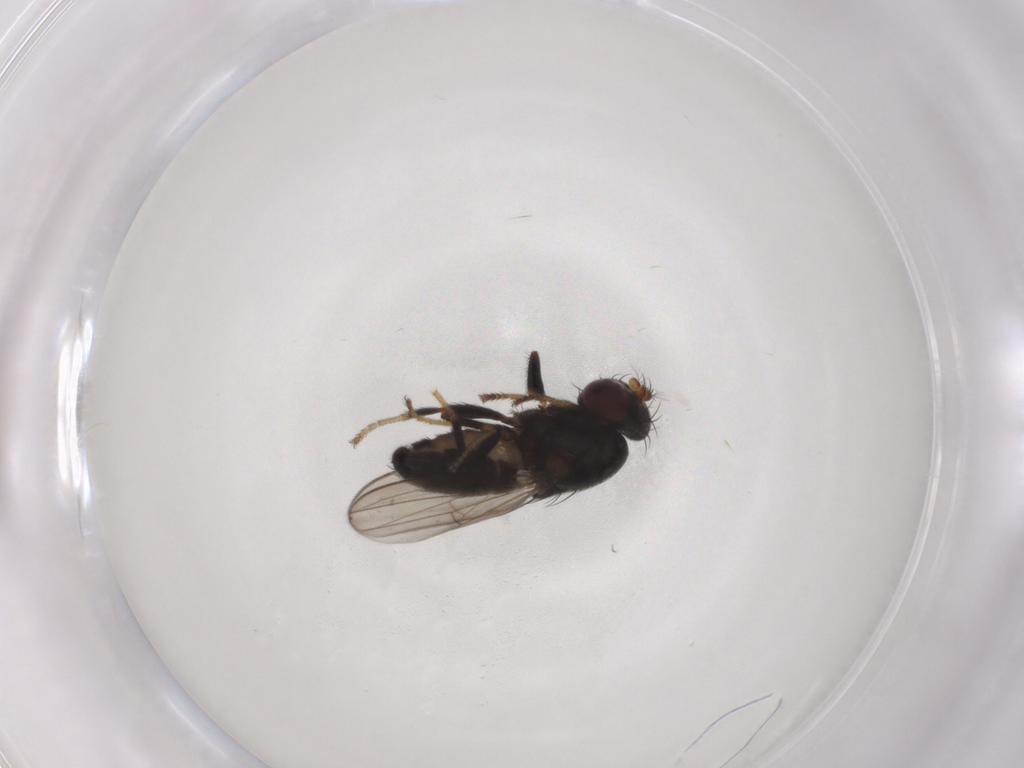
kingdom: Animalia
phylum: Arthropoda
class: Insecta
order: Diptera
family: Ephydridae
